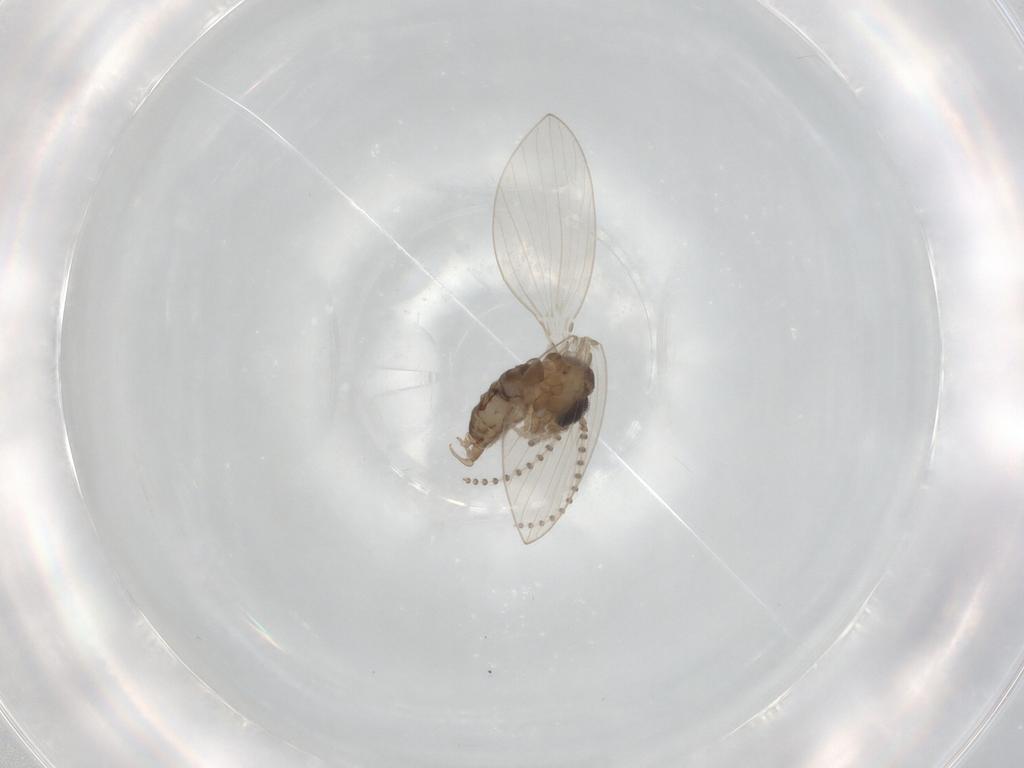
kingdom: Animalia
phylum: Arthropoda
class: Insecta
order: Diptera
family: Psychodidae
